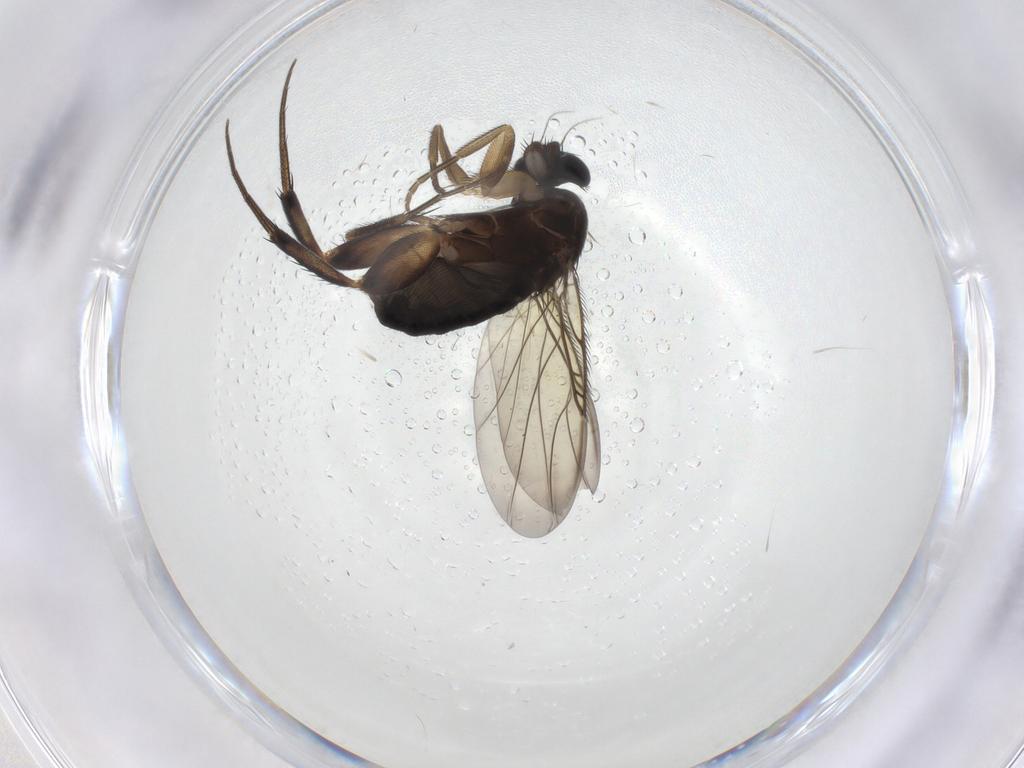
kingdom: Animalia
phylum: Arthropoda
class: Insecta
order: Diptera
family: Phoridae
